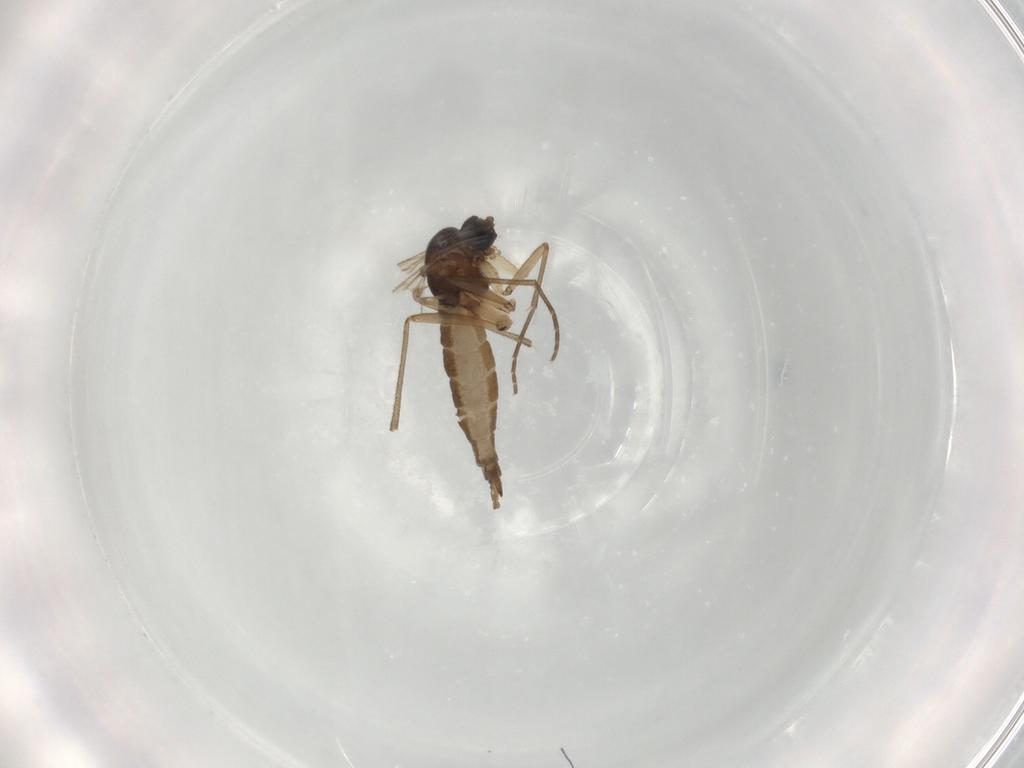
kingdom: Animalia
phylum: Arthropoda
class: Insecta
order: Diptera
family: Sciaridae
